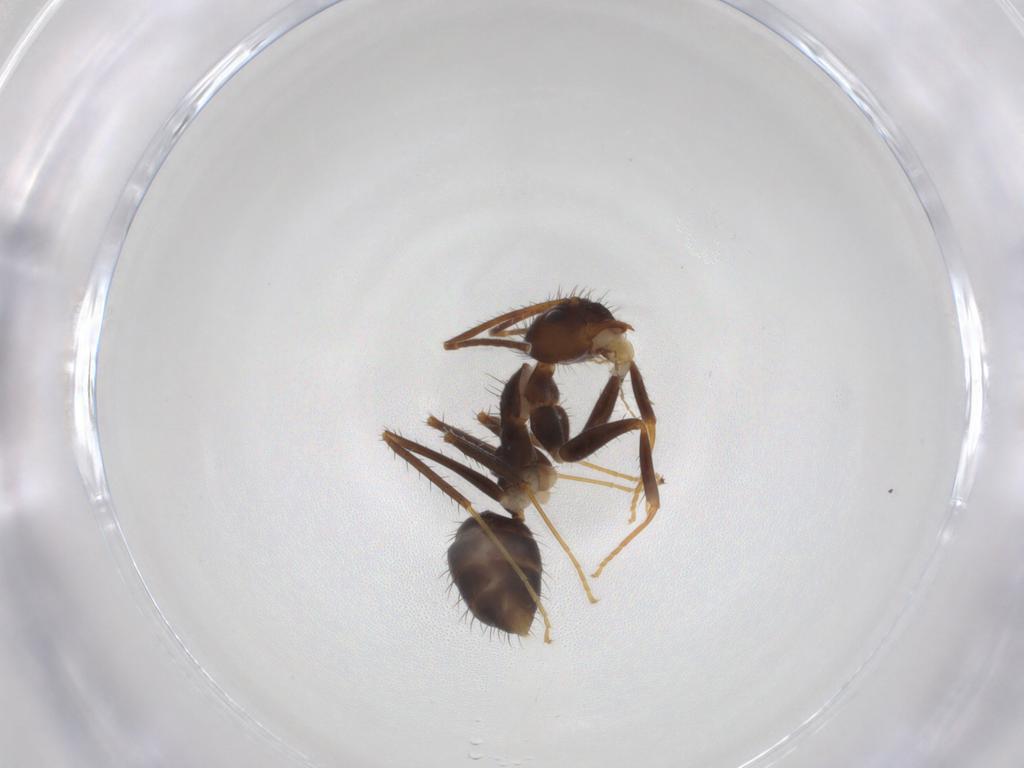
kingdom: Animalia
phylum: Arthropoda
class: Insecta
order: Hymenoptera
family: Formicidae
